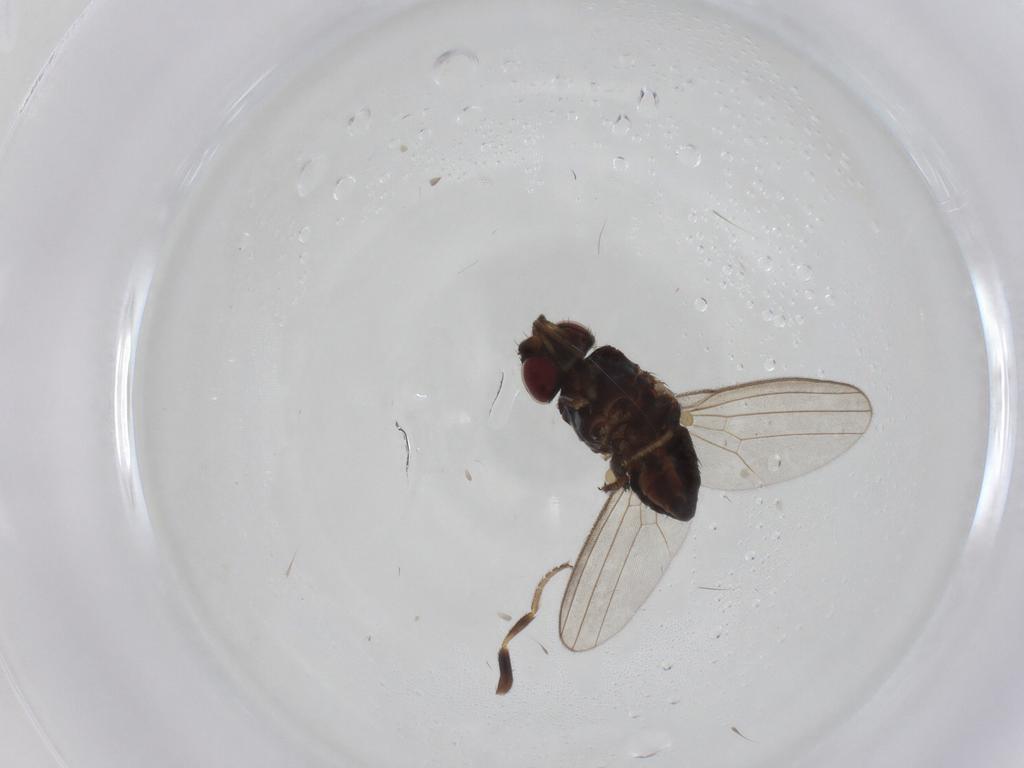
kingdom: Animalia
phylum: Arthropoda
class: Insecta
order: Diptera
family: Milichiidae
